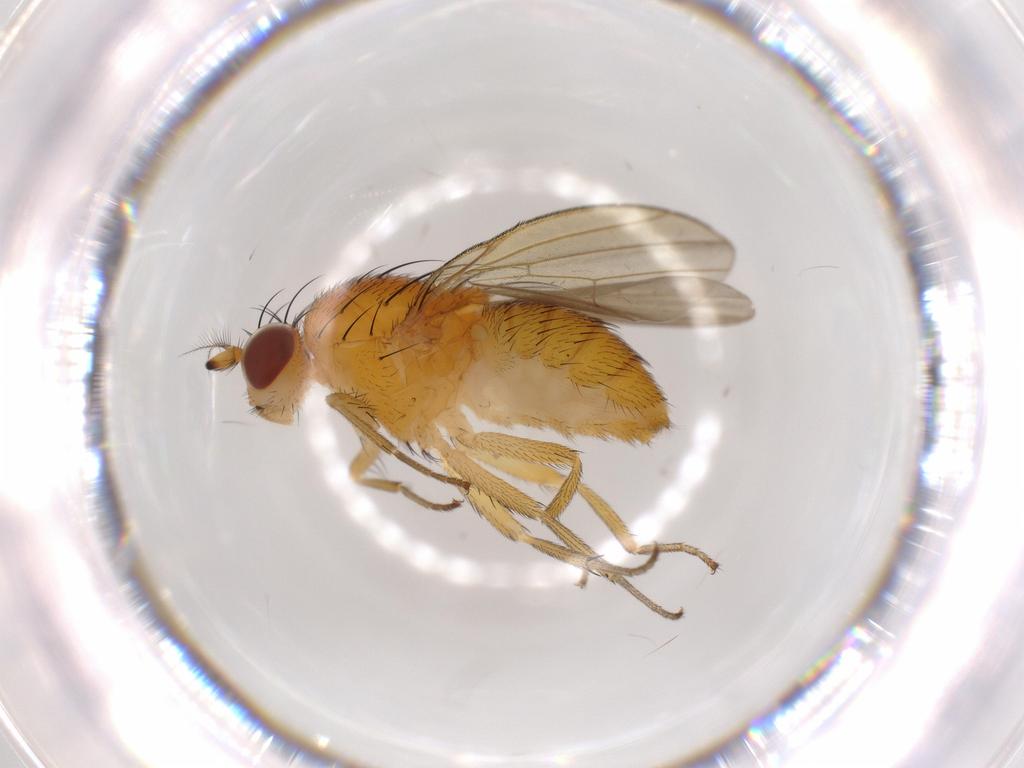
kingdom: Animalia
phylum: Arthropoda
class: Insecta
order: Diptera
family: Lauxaniidae
